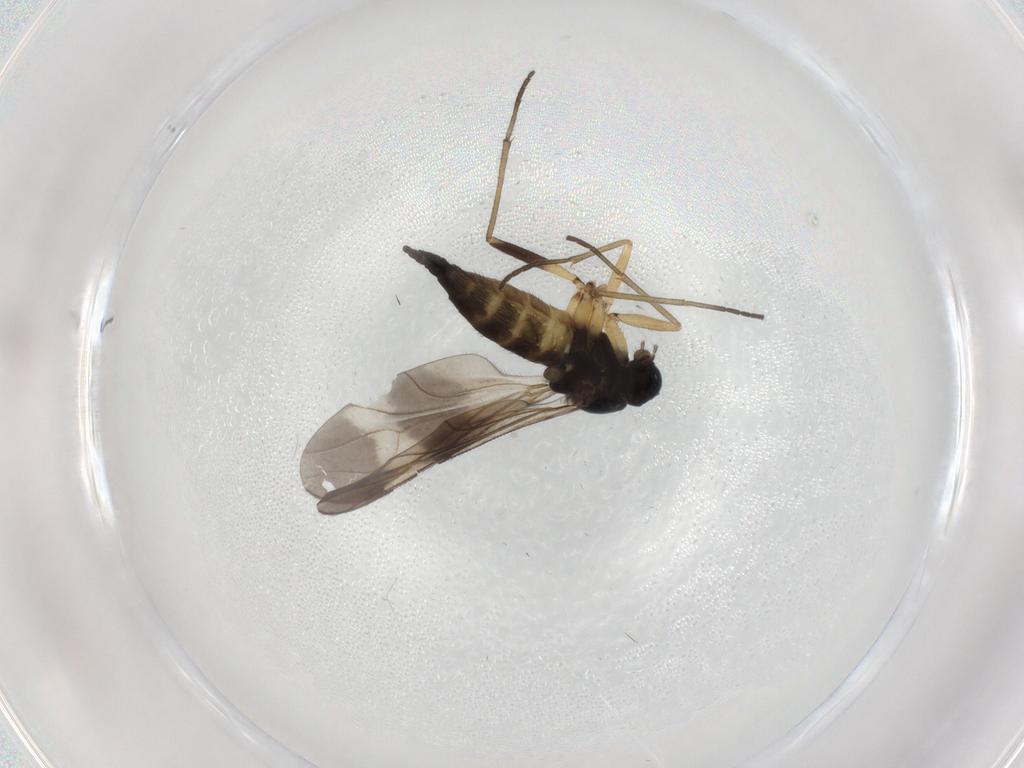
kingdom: Animalia
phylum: Arthropoda
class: Insecta
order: Diptera
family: Sciaridae
